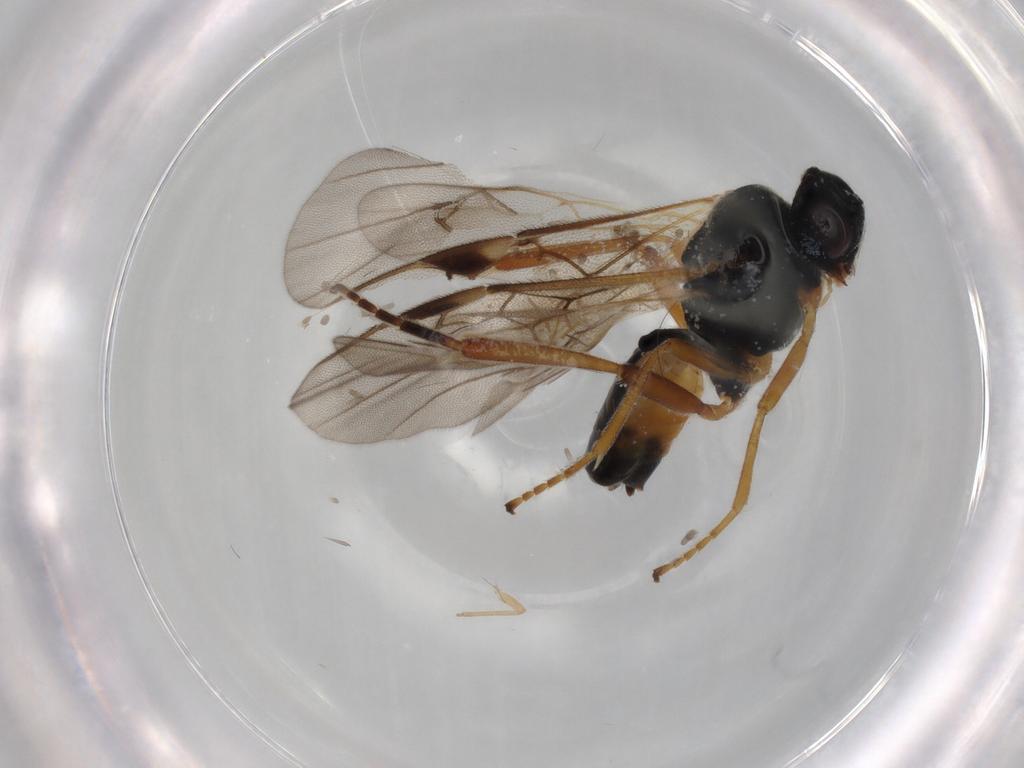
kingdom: Animalia
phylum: Arthropoda
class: Insecta
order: Hymenoptera
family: Braconidae
